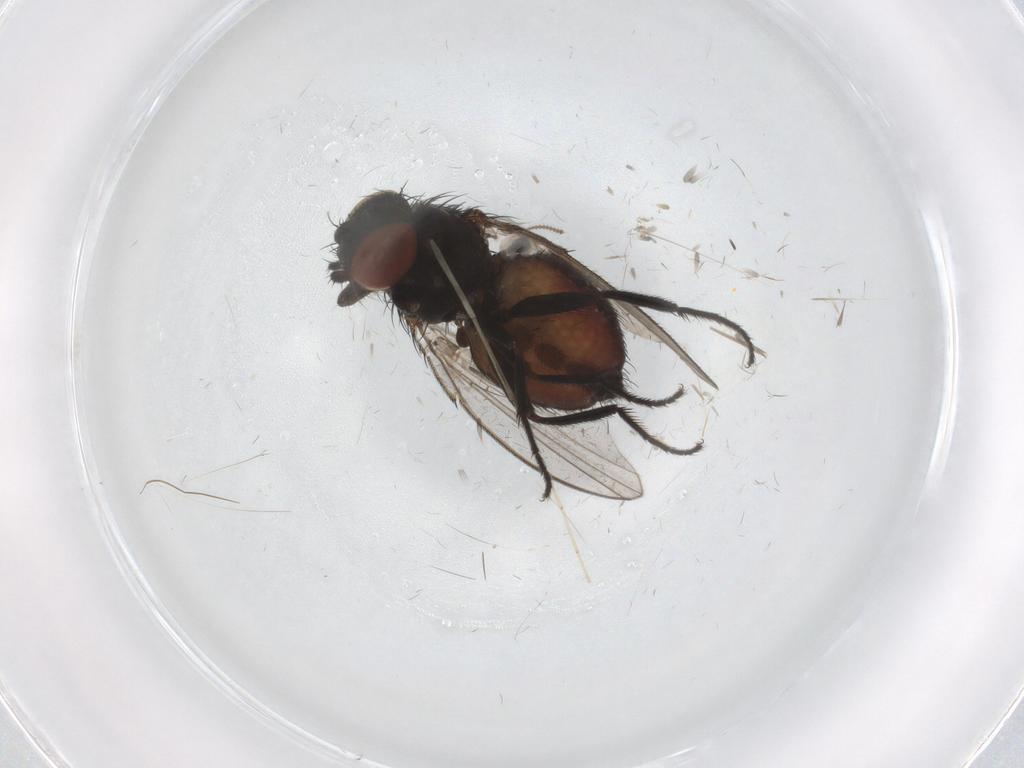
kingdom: Animalia
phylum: Arthropoda
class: Insecta
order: Diptera
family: Milichiidae
